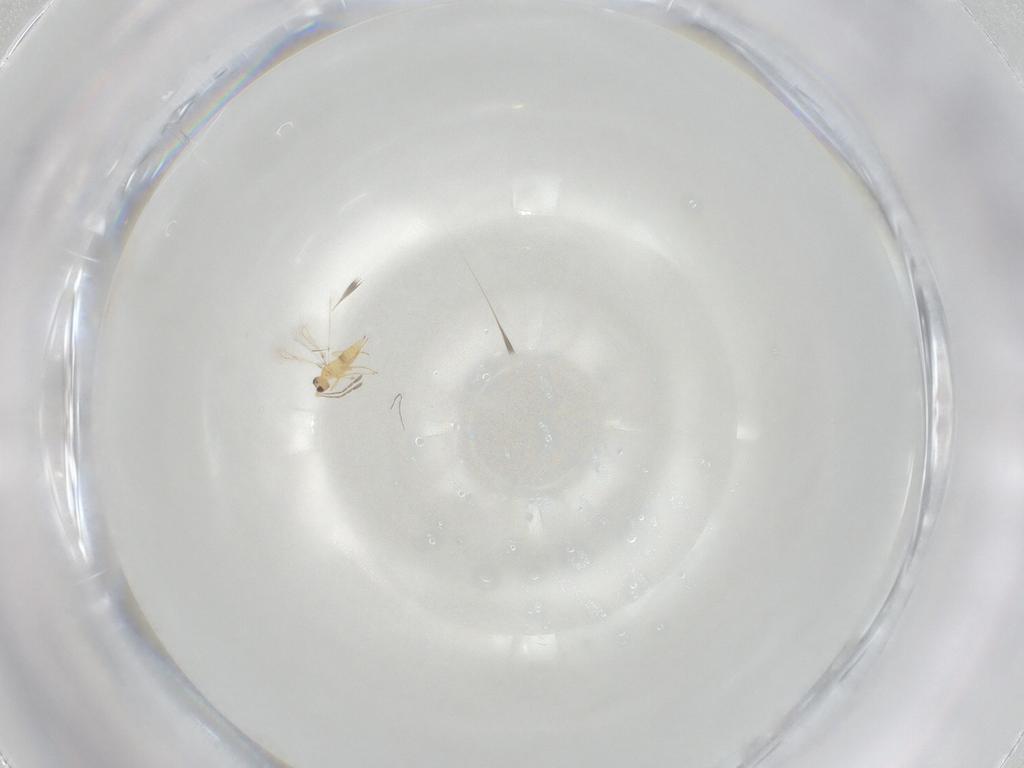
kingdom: Animalia
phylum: Arthropoda
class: Insecta
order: Hymenoptera
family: Mymaridae
